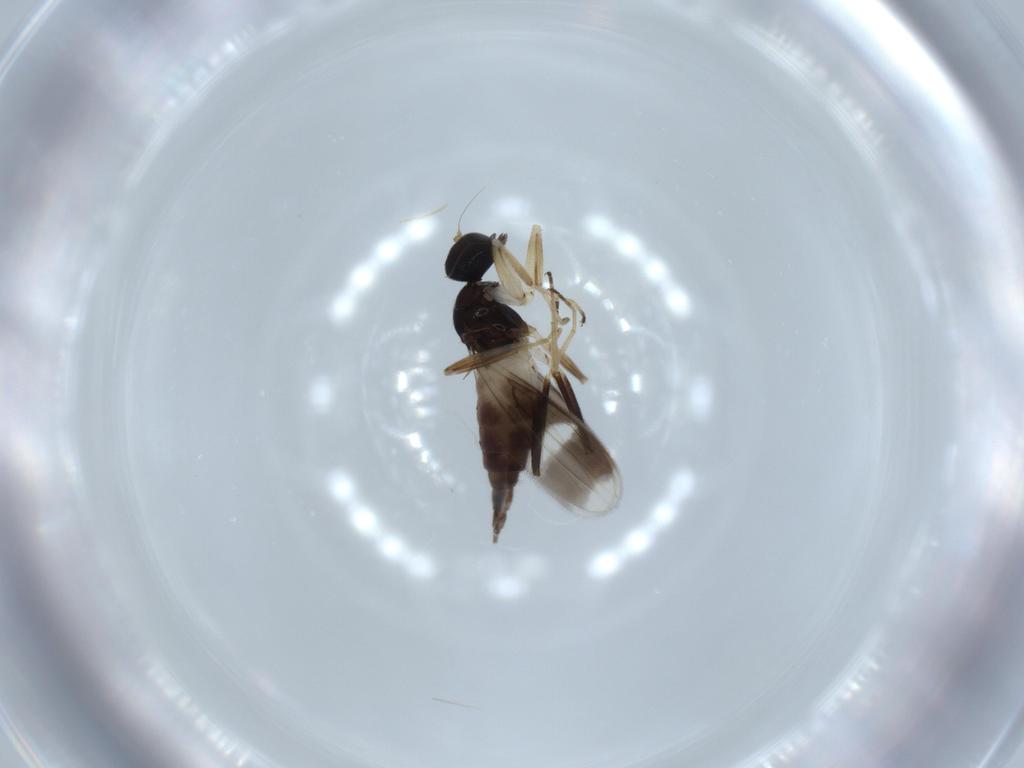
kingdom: Animalia
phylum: Arthropoda
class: Insecta
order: Diptera
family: Hybotidae
